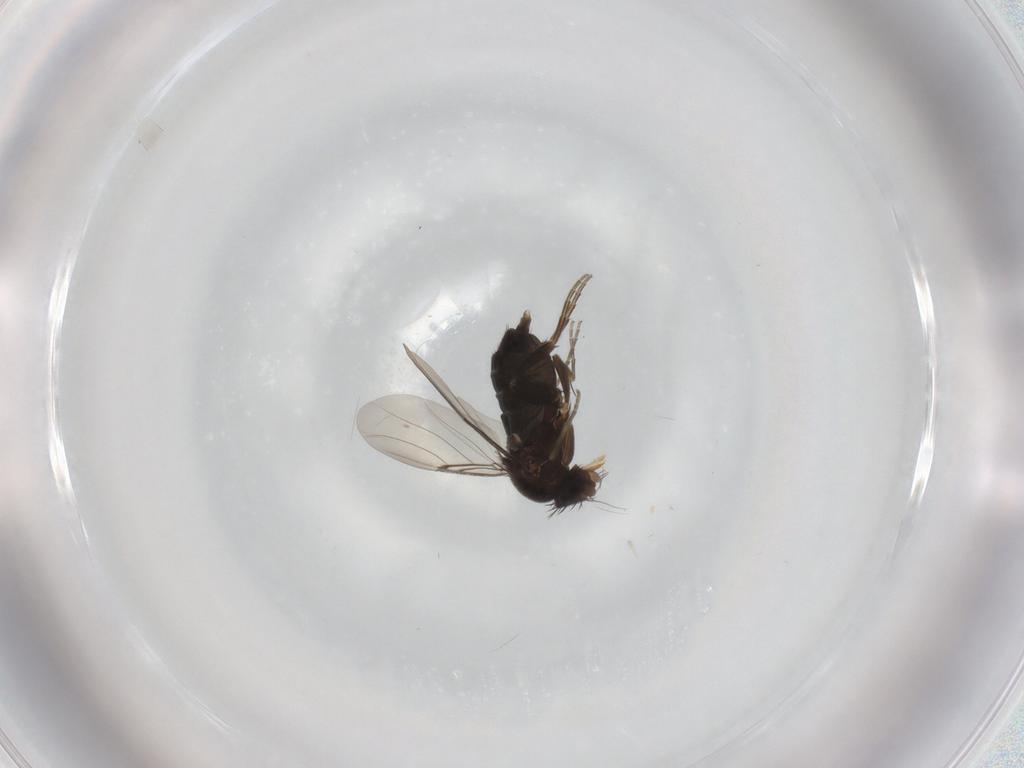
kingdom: Animalia
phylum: Arthropoda
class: Insecta
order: Diptera
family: Phoridae
